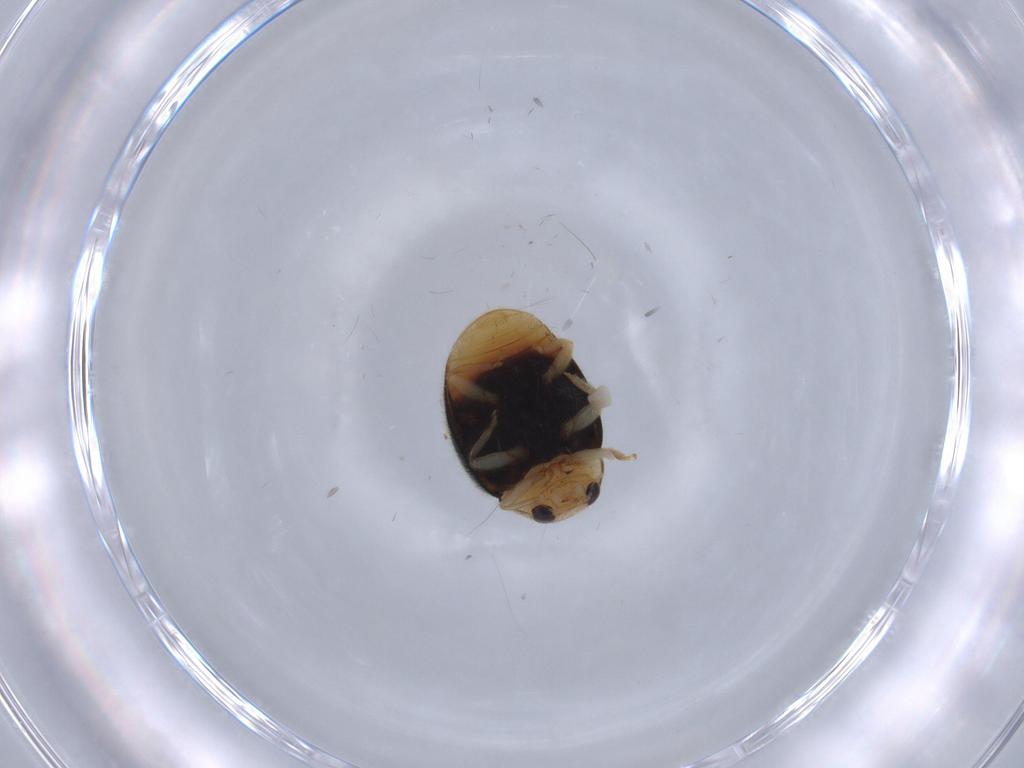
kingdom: Animalia
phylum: Arthropoda
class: Insecta
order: Coleoptera
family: Coccinellidae
